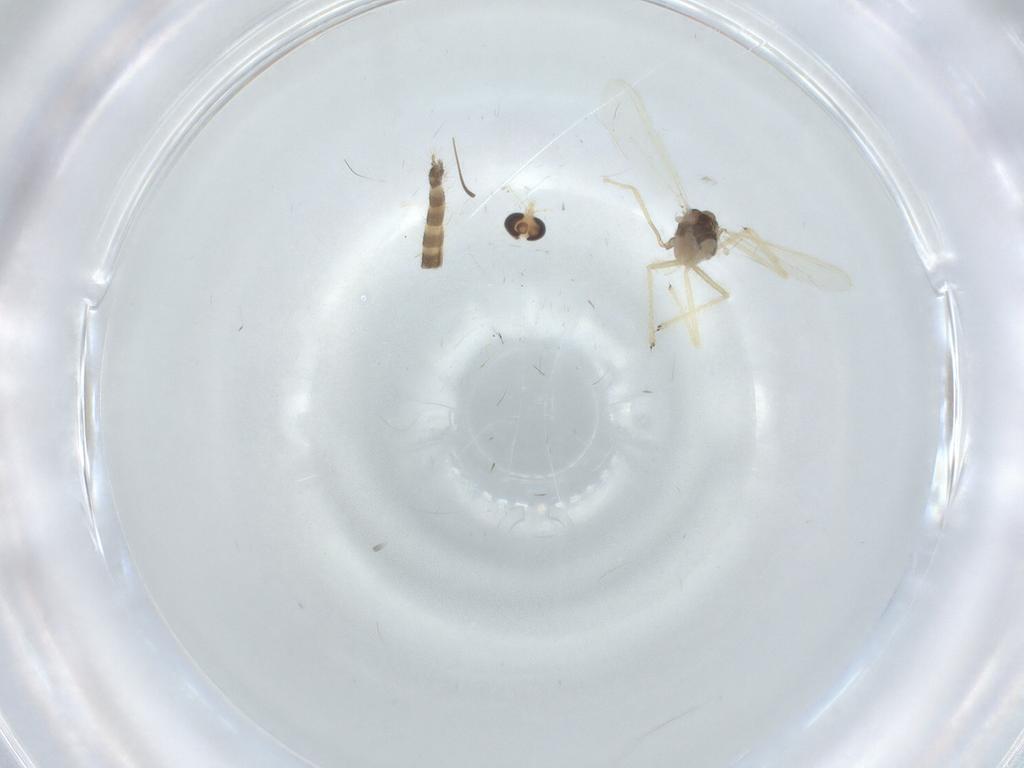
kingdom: Animalia
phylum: Arthropoda
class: Insecta
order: Diptera
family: Chironomidae
